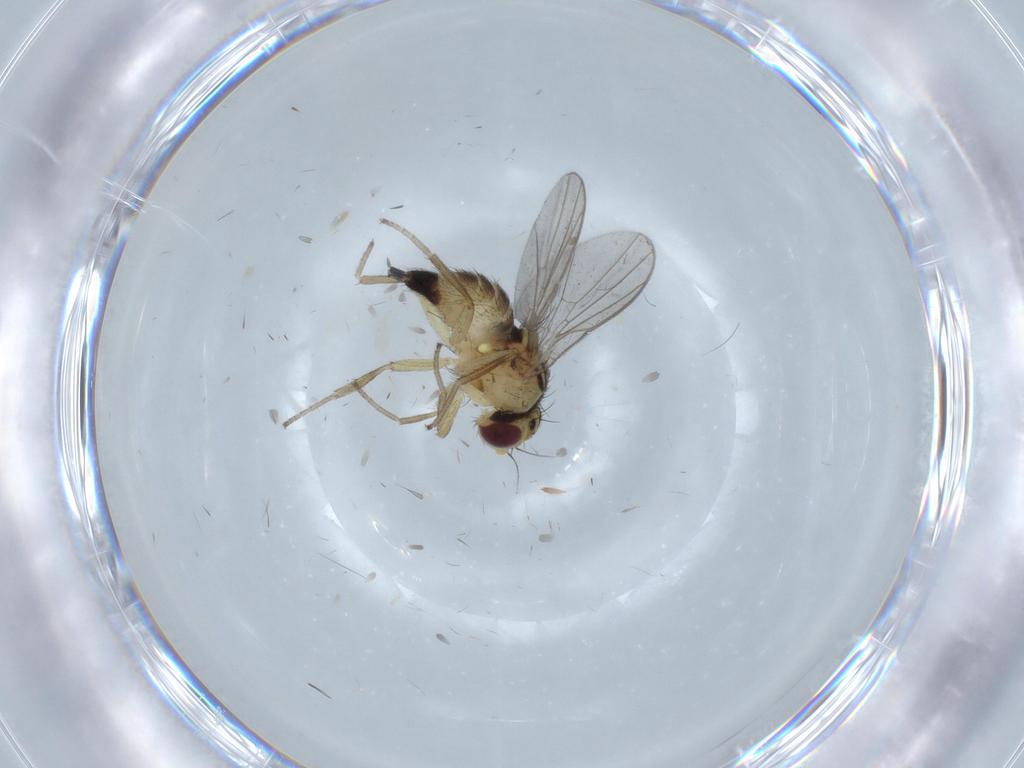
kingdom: Animalia
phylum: Arthropoda
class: Insecta
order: Diptera
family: Agromyzidae
